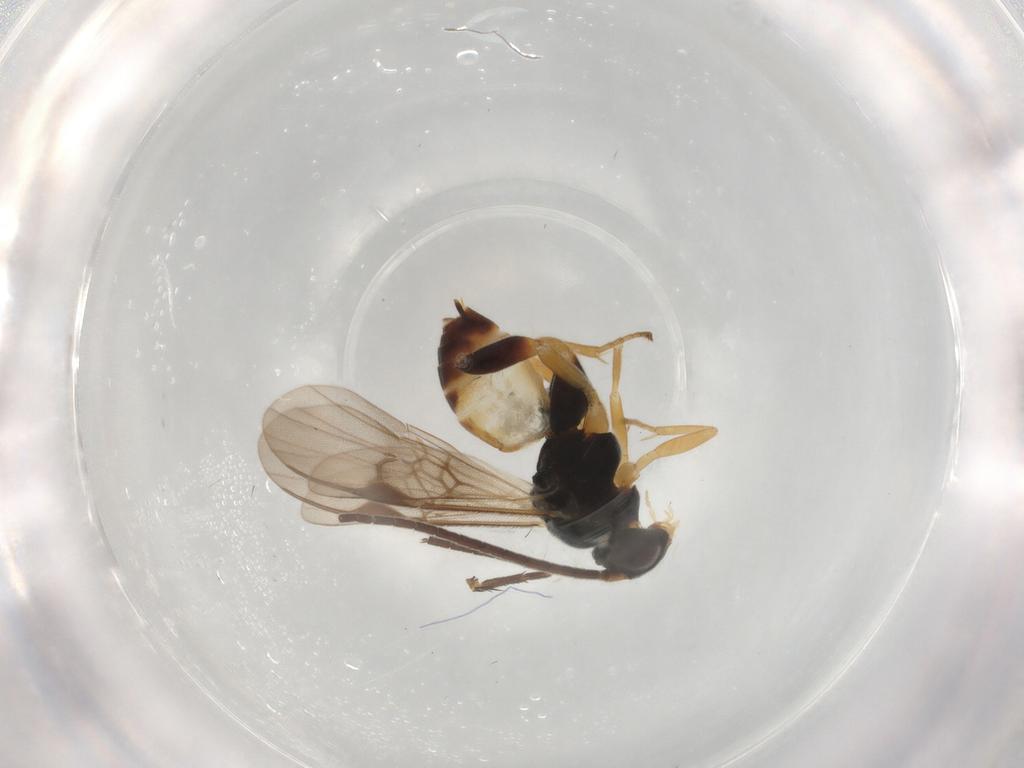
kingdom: Animalia
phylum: Arthropoda
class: Insecta
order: Hymenoptera
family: Braconidae
